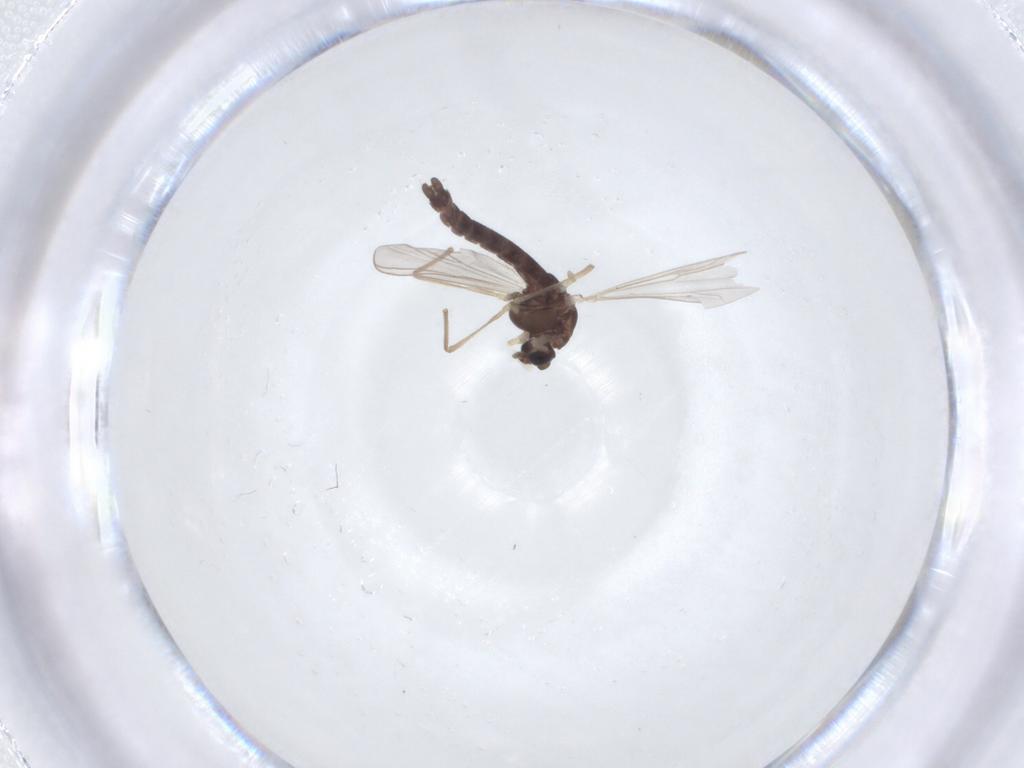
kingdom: Animalia
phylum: Arthropoda
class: Insecta
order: Diptera
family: Chironomidae
